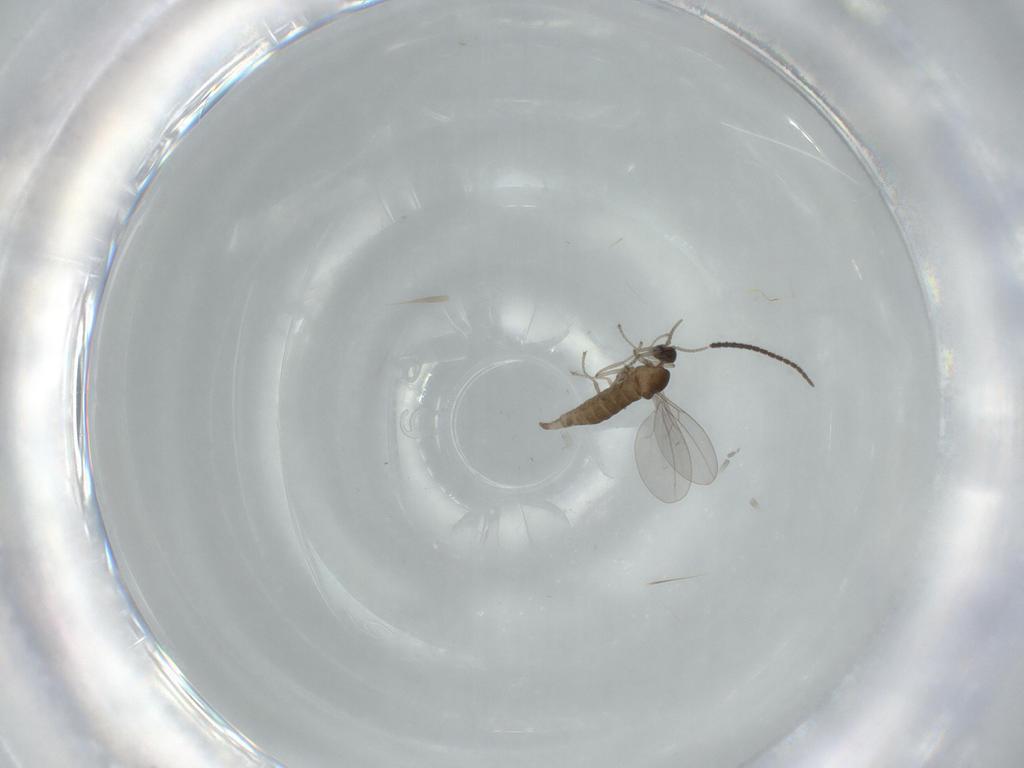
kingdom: Animalia
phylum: Arthropoda
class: Insecta
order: Diptera
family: Cecidomyiidae
